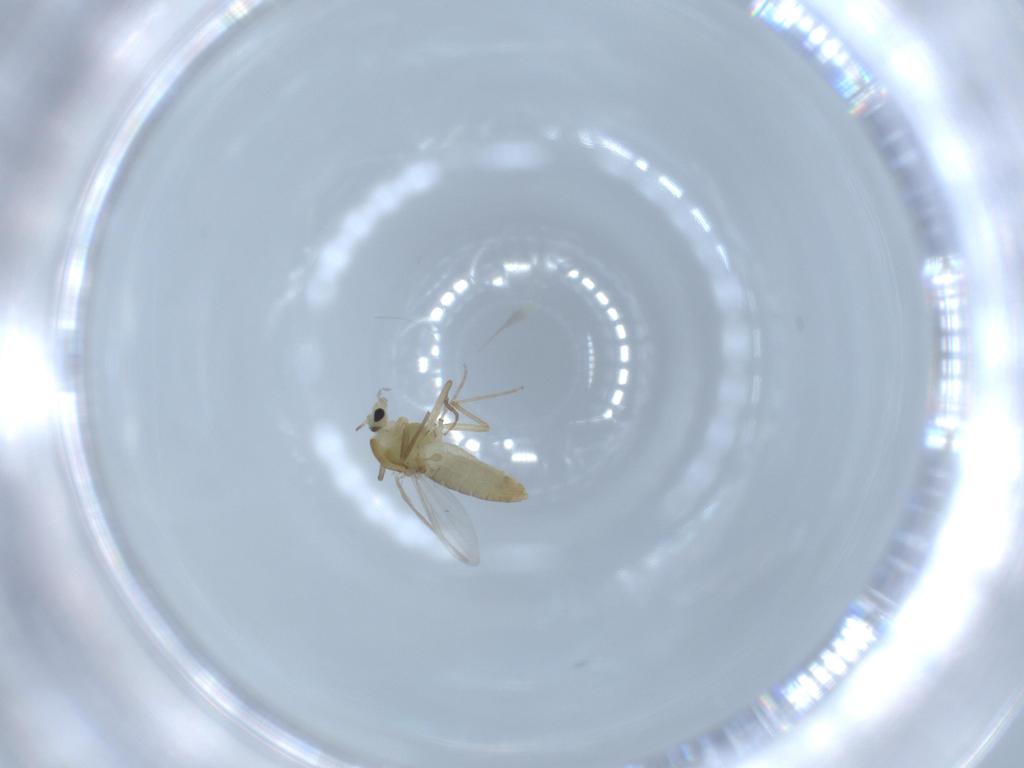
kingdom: Animalia
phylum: Arthropoda
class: Insecta
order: Diptera
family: Chironomidae
